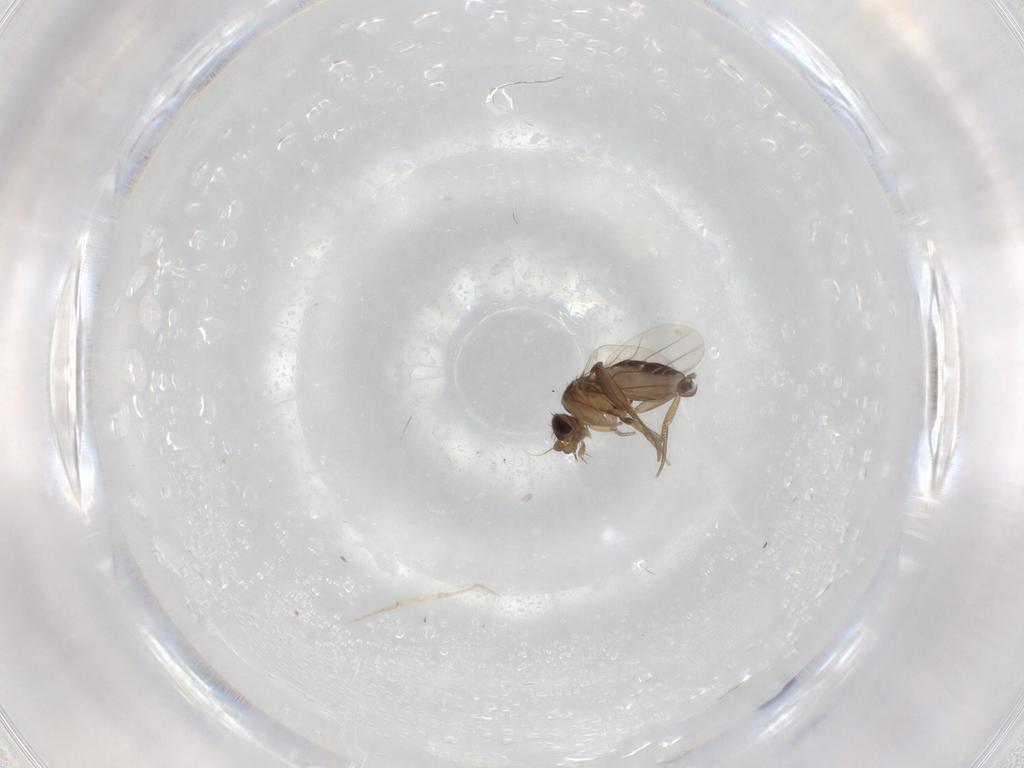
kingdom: Animalia
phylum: Arthropoda
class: Insecta
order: Diptera
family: Phoridae
